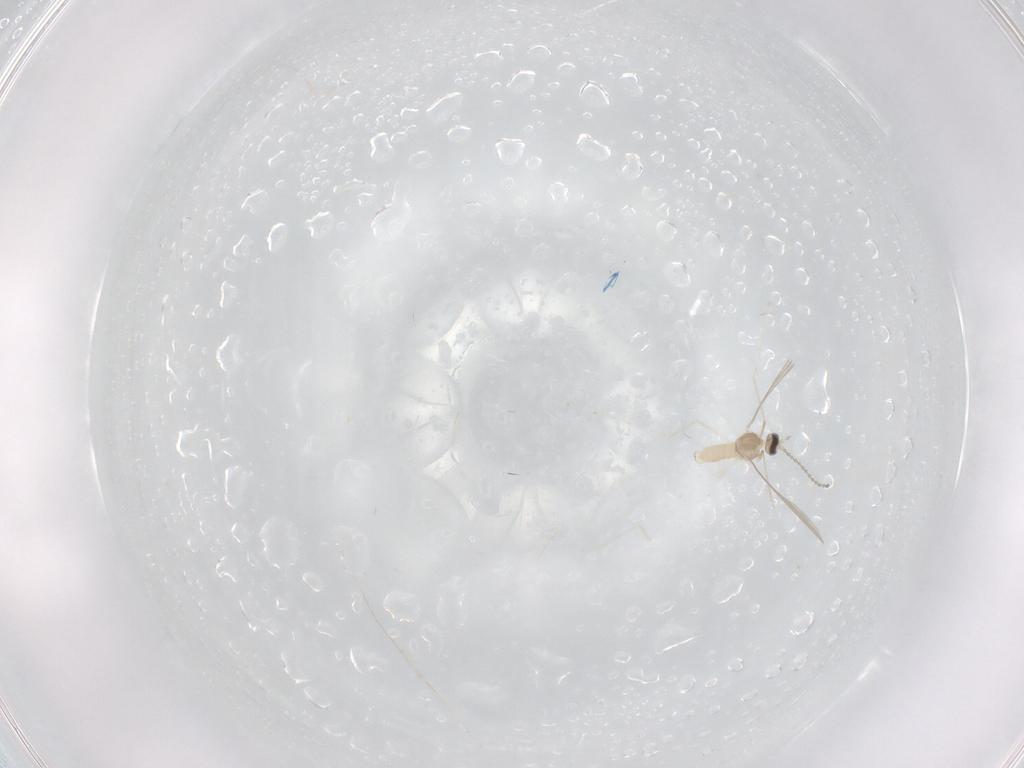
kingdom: Animalia
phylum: Arthropoda
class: Insecta
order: Diptera
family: Cecidomyiidae
